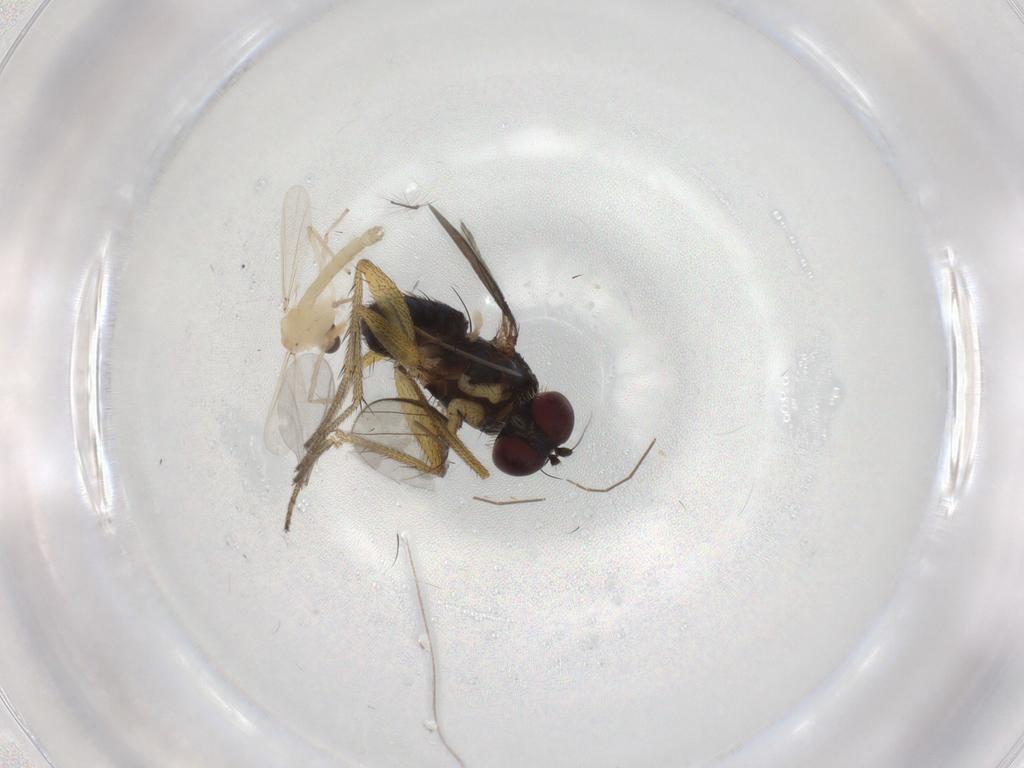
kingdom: Animalia
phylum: Arthropoda
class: Insecta
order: Diptera
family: Chironomidae
